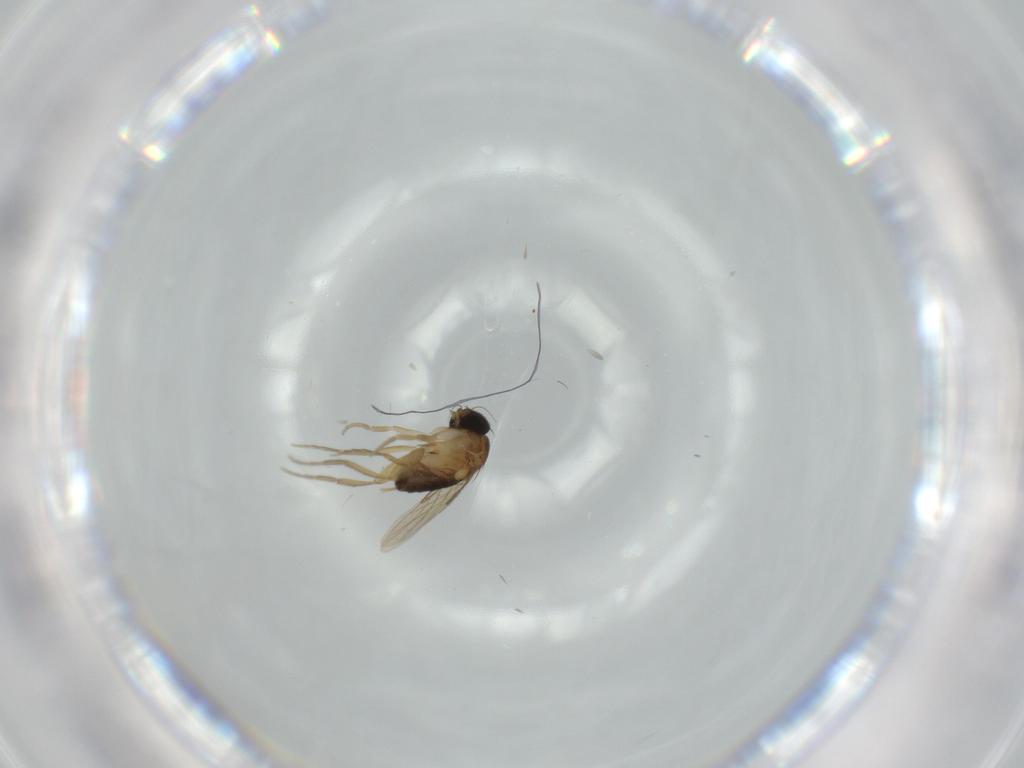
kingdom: Animalia
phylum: Arthropoda
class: Insecta
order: Diptera
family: Phoridae
